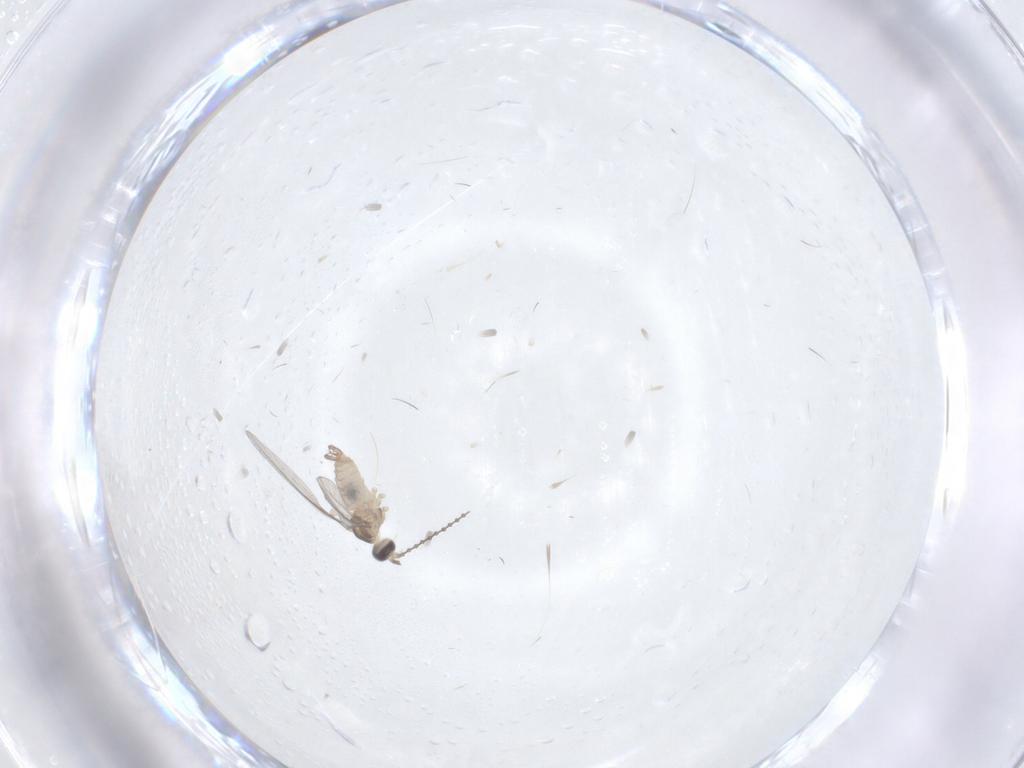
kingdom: Animalia
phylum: Arthropoda
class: Insecta
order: Diptera
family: Cecidomyiidae
